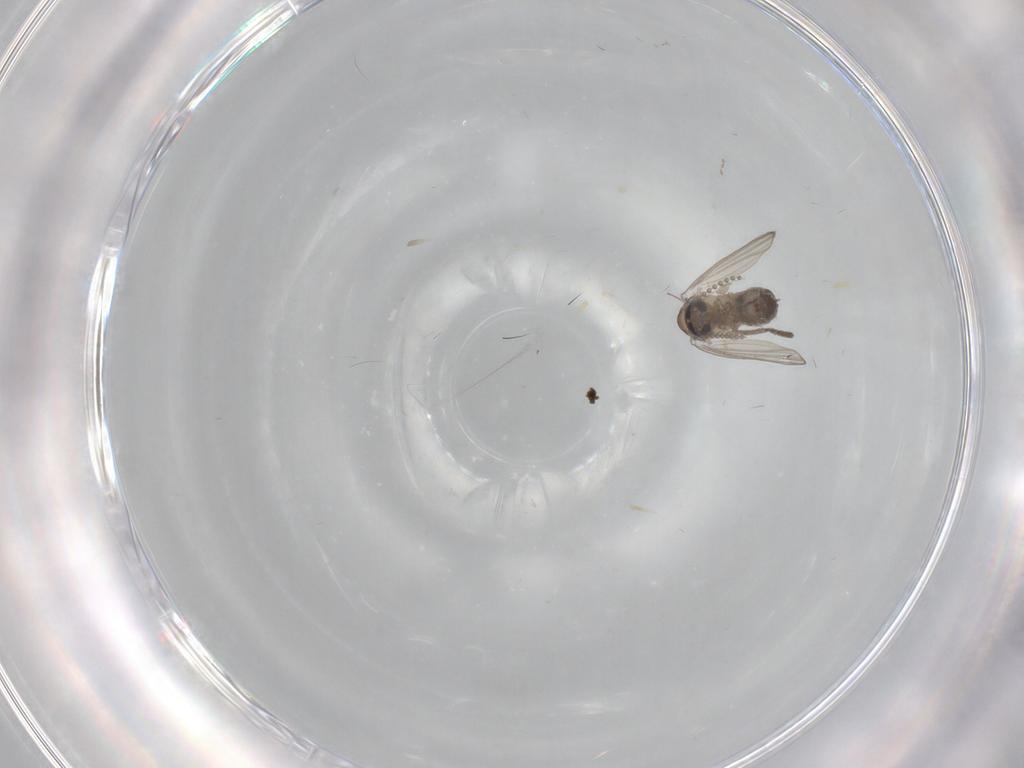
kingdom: Animalia
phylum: Arthropoda
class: Insecta
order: Diptera
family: Psychodidae
